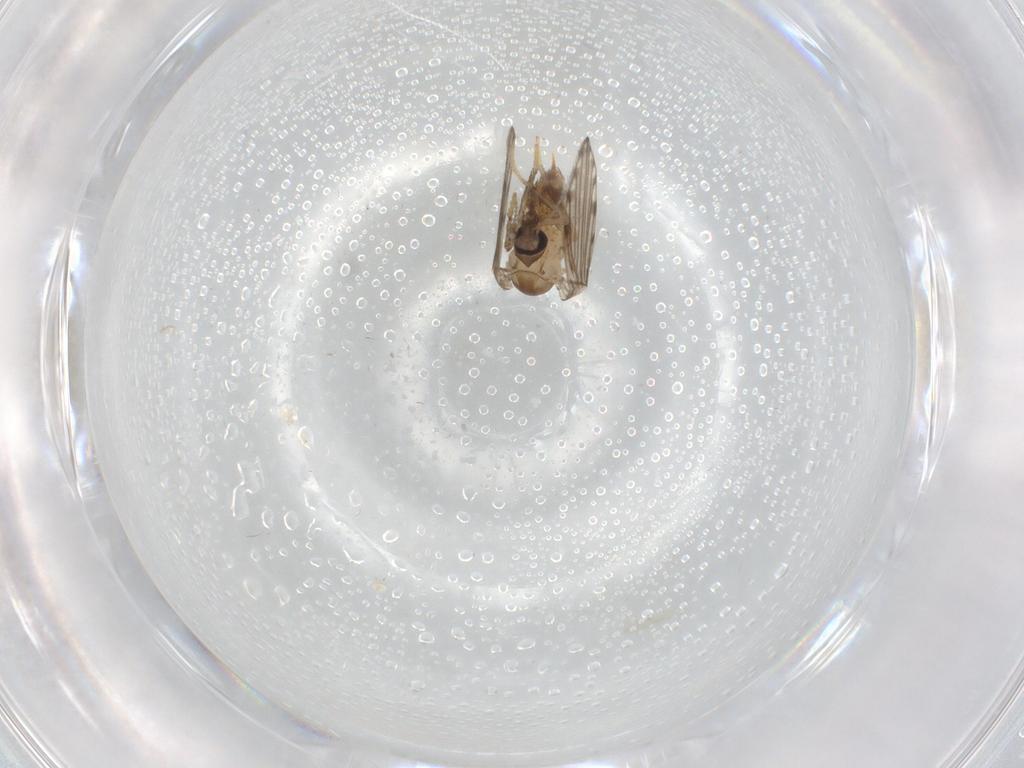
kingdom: Animalia
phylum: Arthropoda
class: Insecta
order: Diptera
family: Psychodidae
